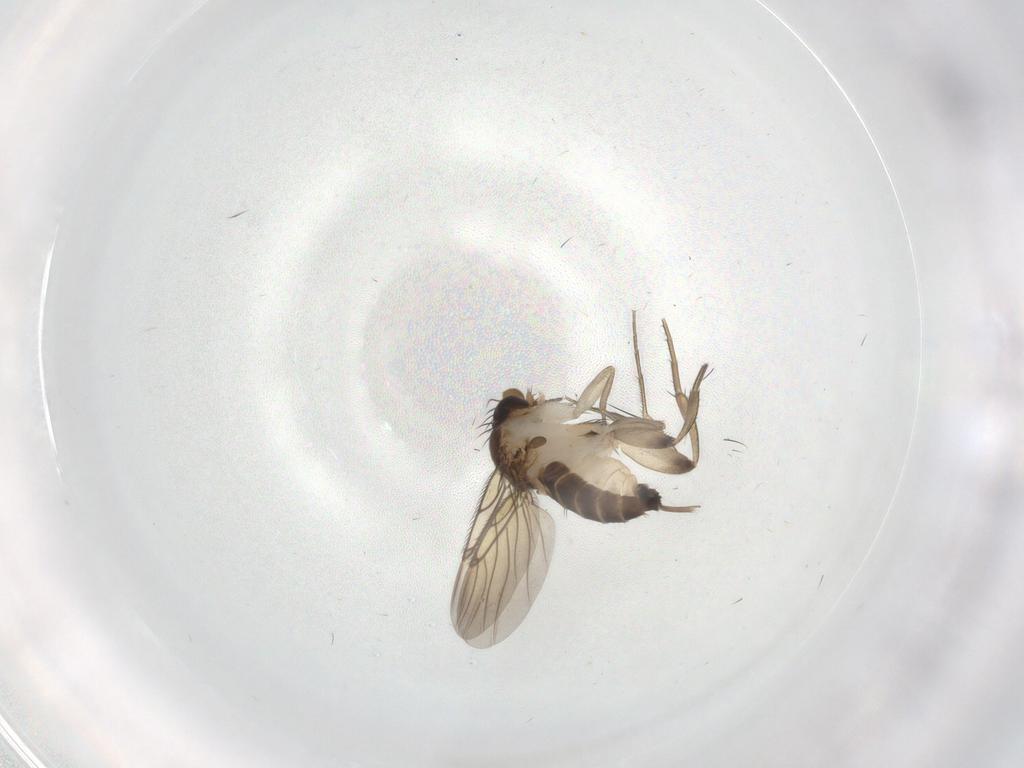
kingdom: Animalia
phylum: Arthropoda
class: Insecta
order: Diptera
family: Phoridae
